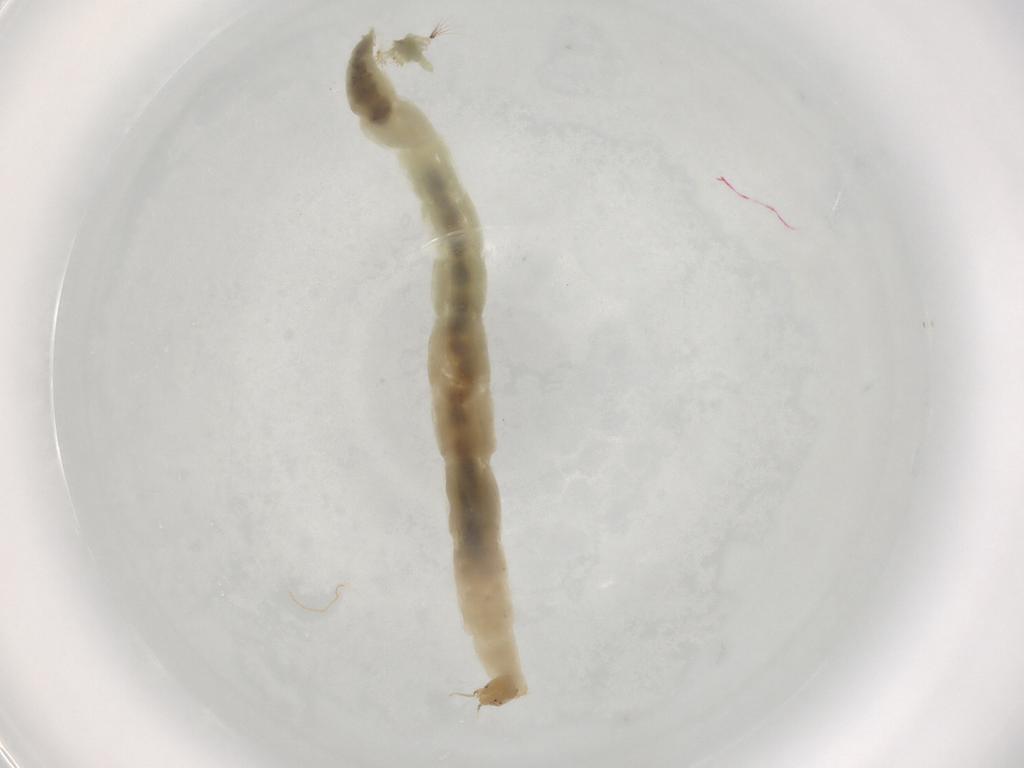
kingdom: Animalia
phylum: Arthropoda
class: Insecta
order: Diptera
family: Chironomidae
